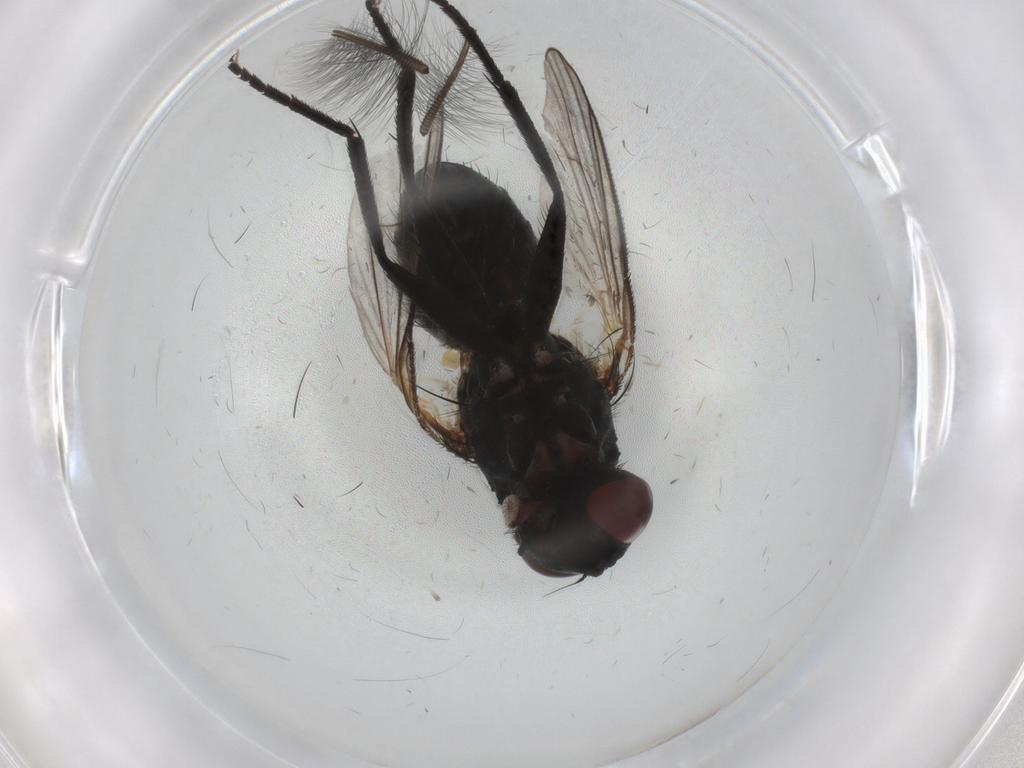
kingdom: Animalia
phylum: Arthropoda
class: Insecta
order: Diptera
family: Muscidae
